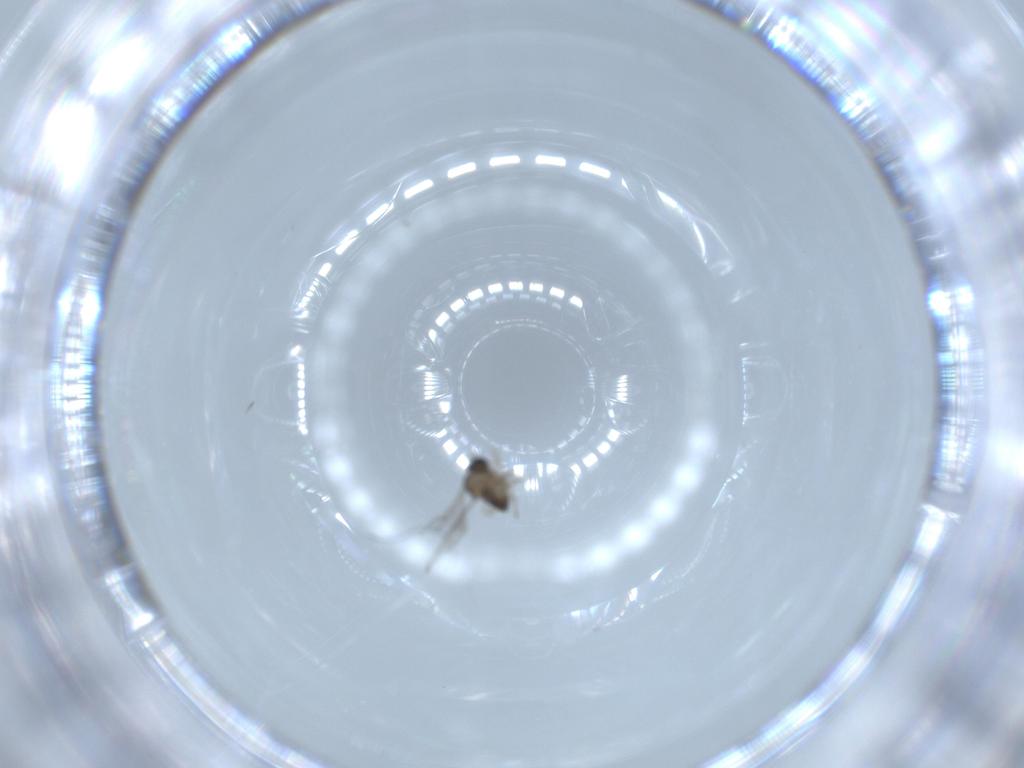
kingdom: Animalia
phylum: Arthropoda
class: Insecta
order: Diptera
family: Cecidomyiidae
